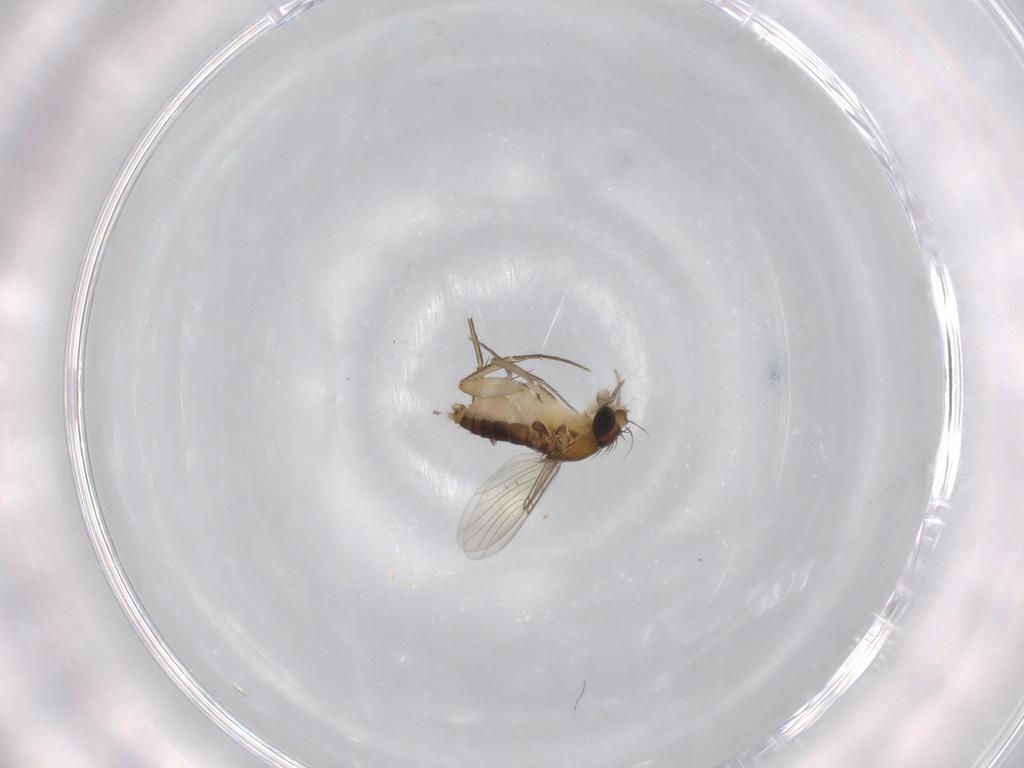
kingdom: Animalia
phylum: Arthropoda
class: Insecta
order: Diptera
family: Phoridae
